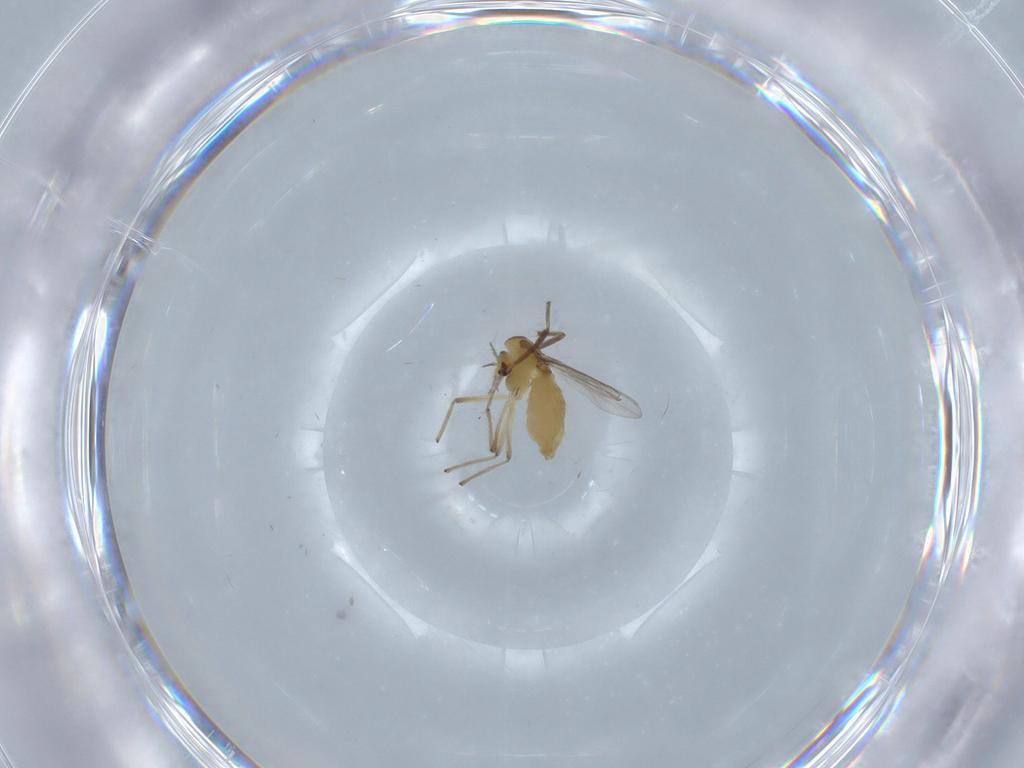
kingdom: Animalia
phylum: Arthropoda
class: Insecta
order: Diptera
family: Chironomidae
